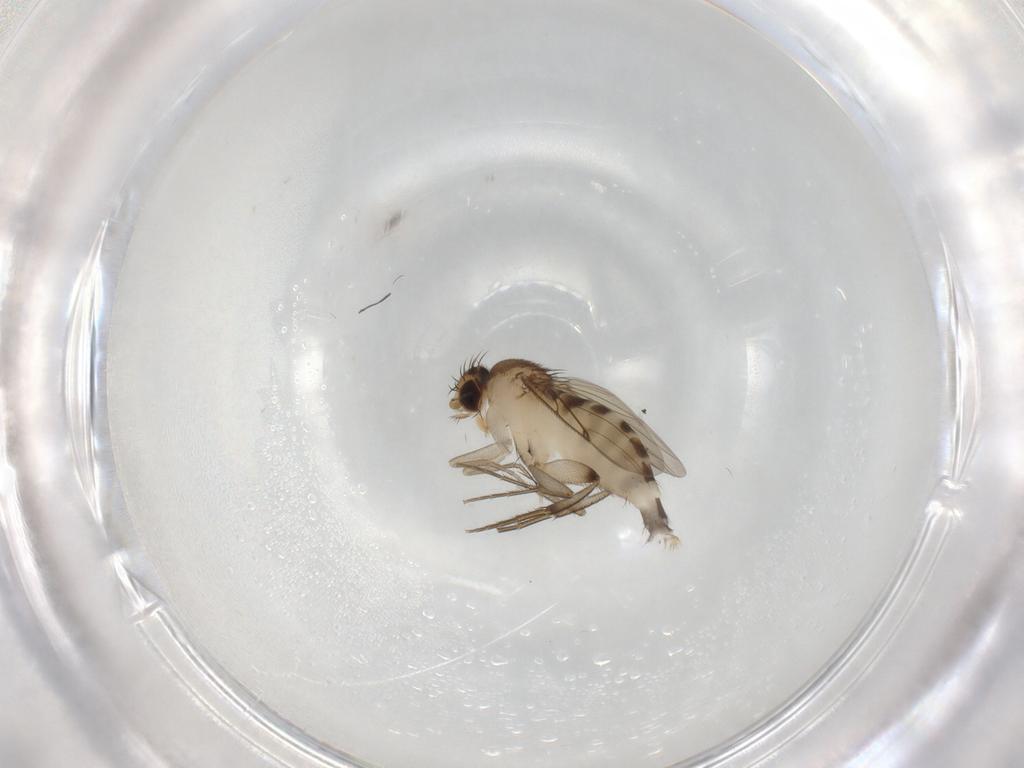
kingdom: Animalia
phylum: Arthropoda
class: Insecta
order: Diptera
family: Phoridae
